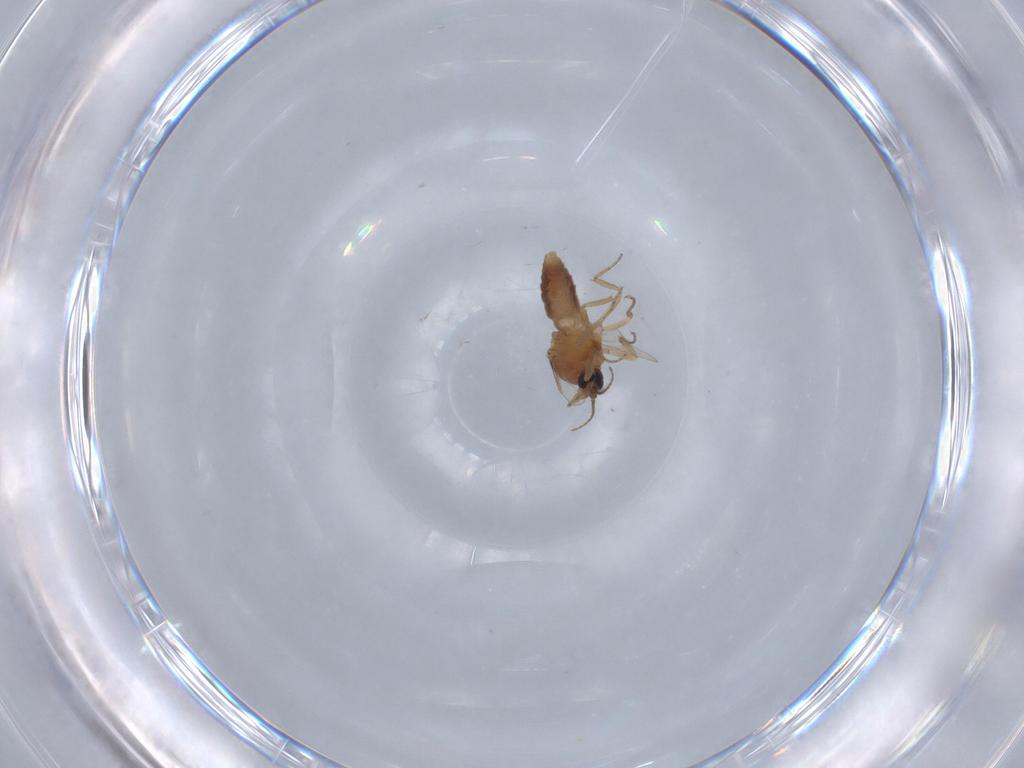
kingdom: Animalia
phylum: Arthropoda
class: Insecta
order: Diptera
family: Ceratopogonidae
